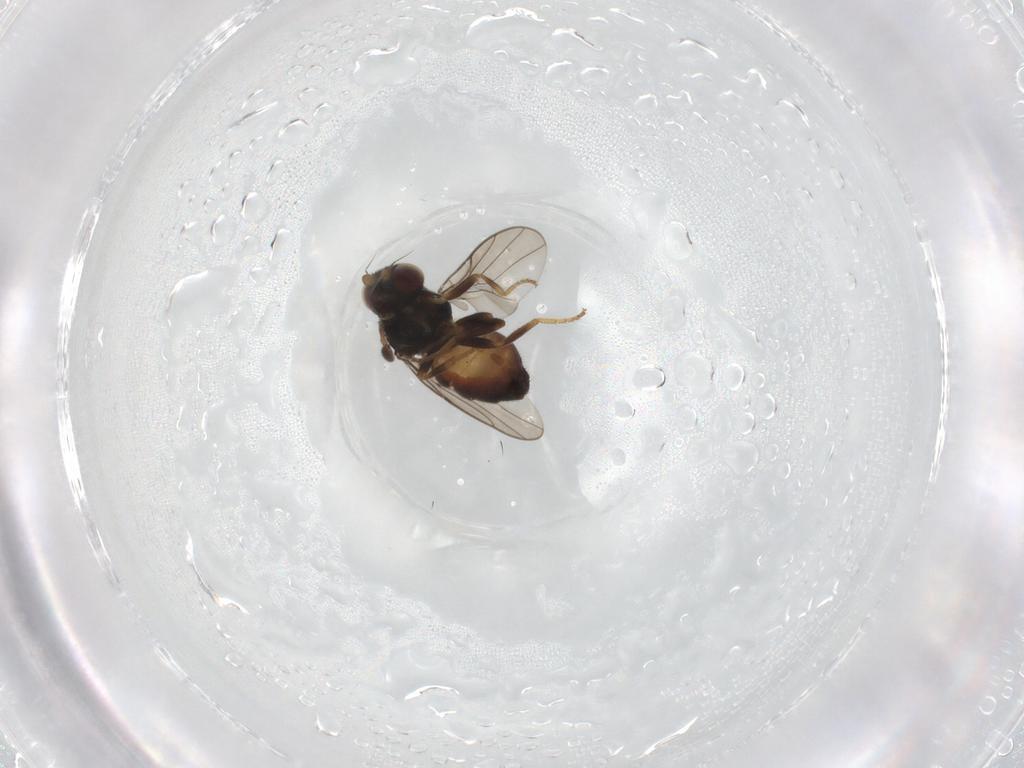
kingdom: Animalia
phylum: Arthropoda
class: Insecta
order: Diptera
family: Chloropidae
